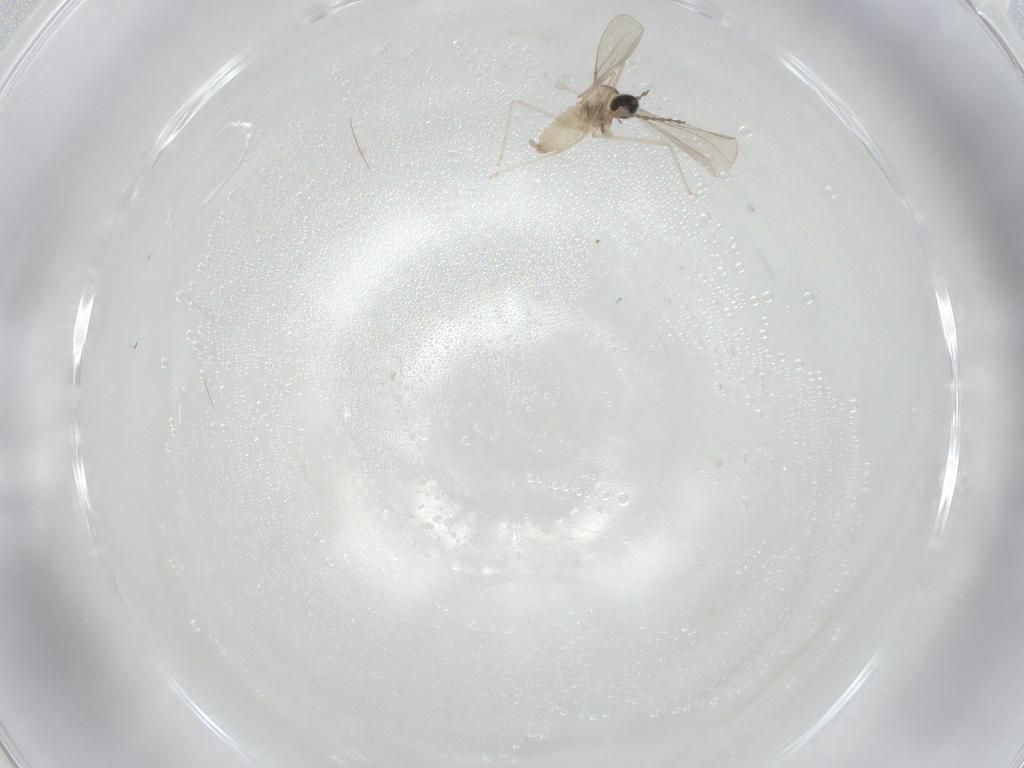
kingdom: Animalia
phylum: Arthropoda
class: Insecta
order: Diptera
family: Cecidomyiidae
